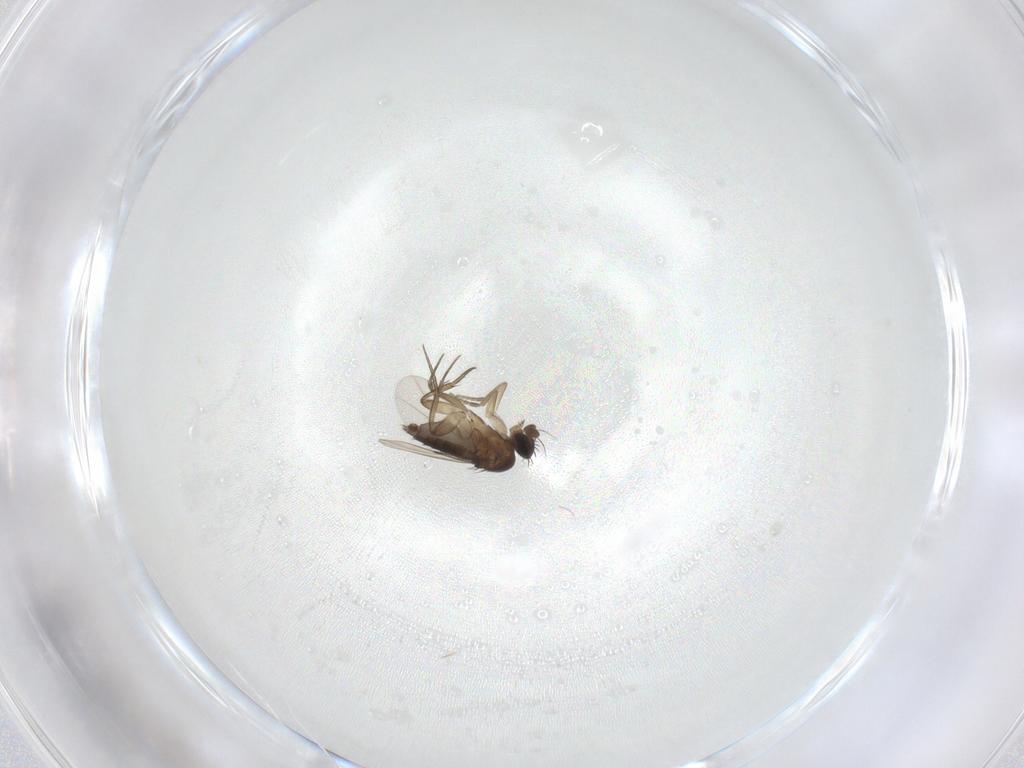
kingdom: Animalia
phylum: Arthropoda
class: Insecta
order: Diptera
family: Phoridae
